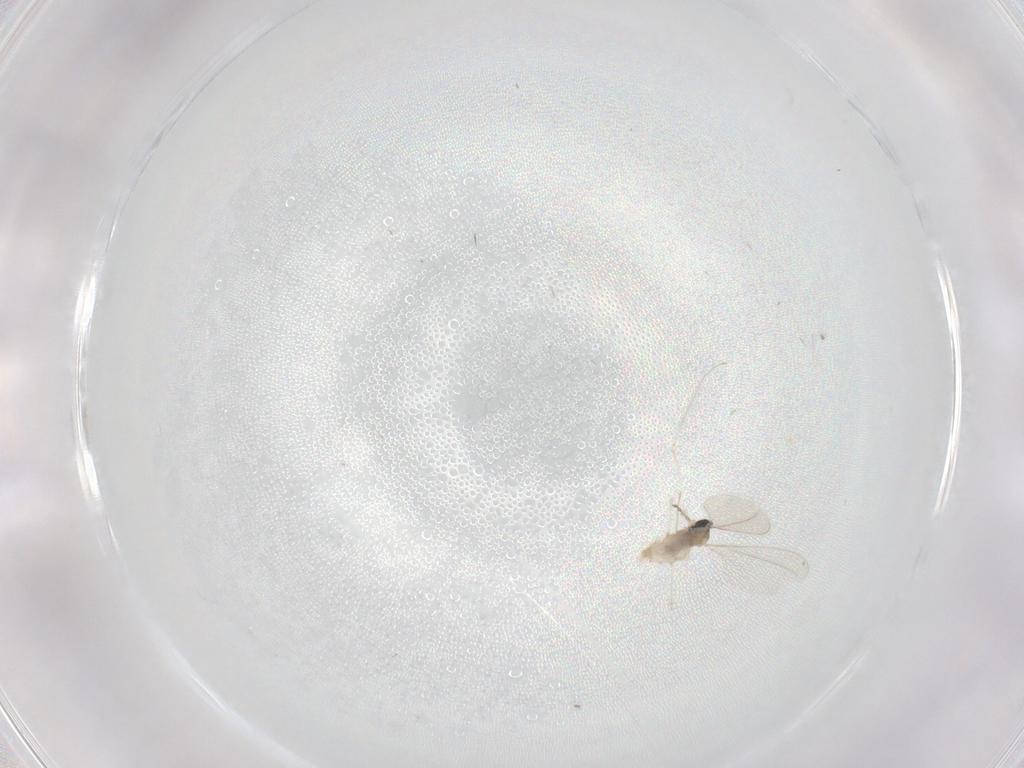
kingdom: Animalia
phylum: Arthropoda
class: Insecta
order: Diptera
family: Cecidomyiidae
